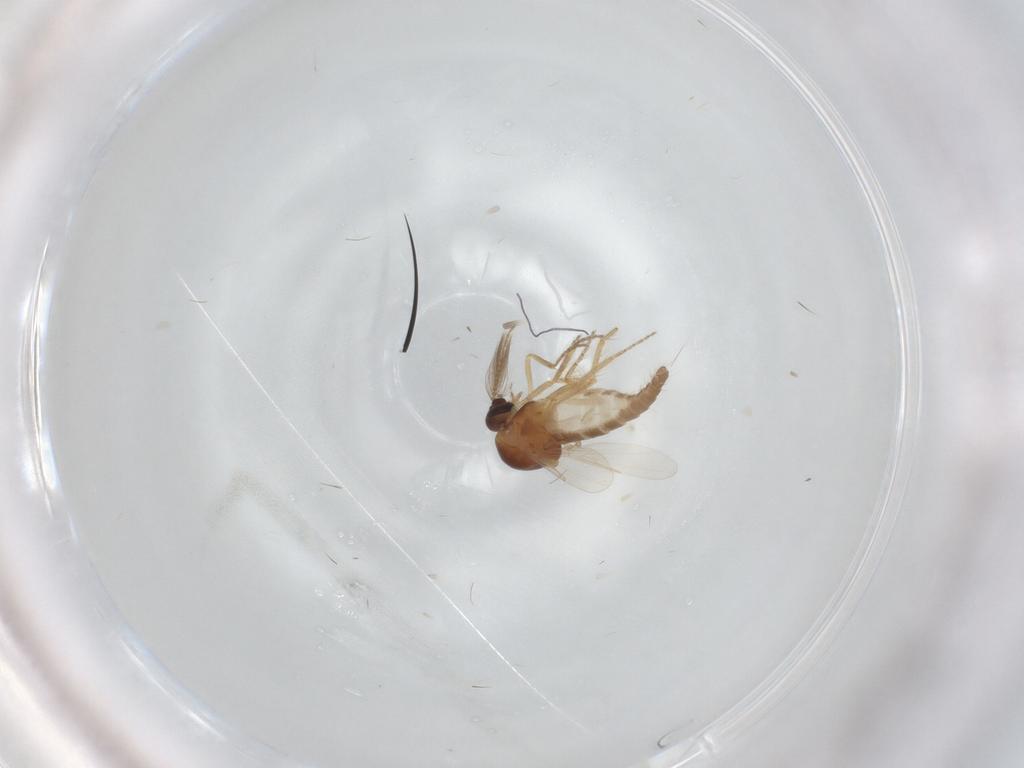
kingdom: Animalia
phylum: Arthropoda
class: Insecta
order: Diptera
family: Ceratopogonidae
